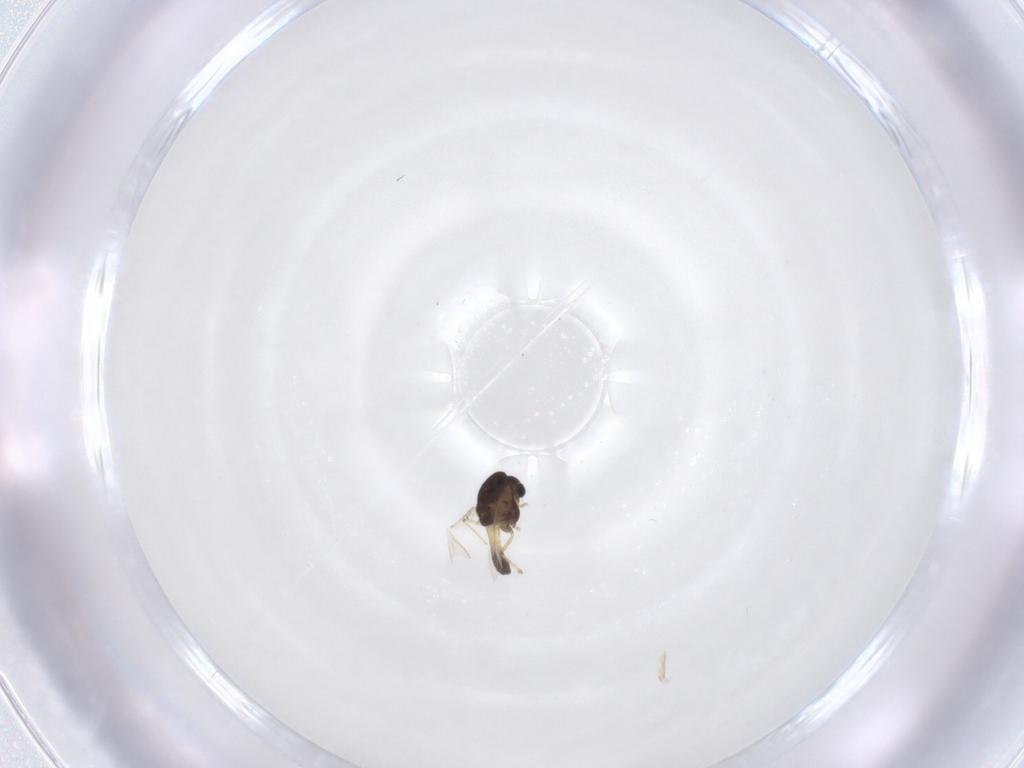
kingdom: Animalia
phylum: Arthropoda
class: Insecta
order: Diptera
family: Chironomidae
